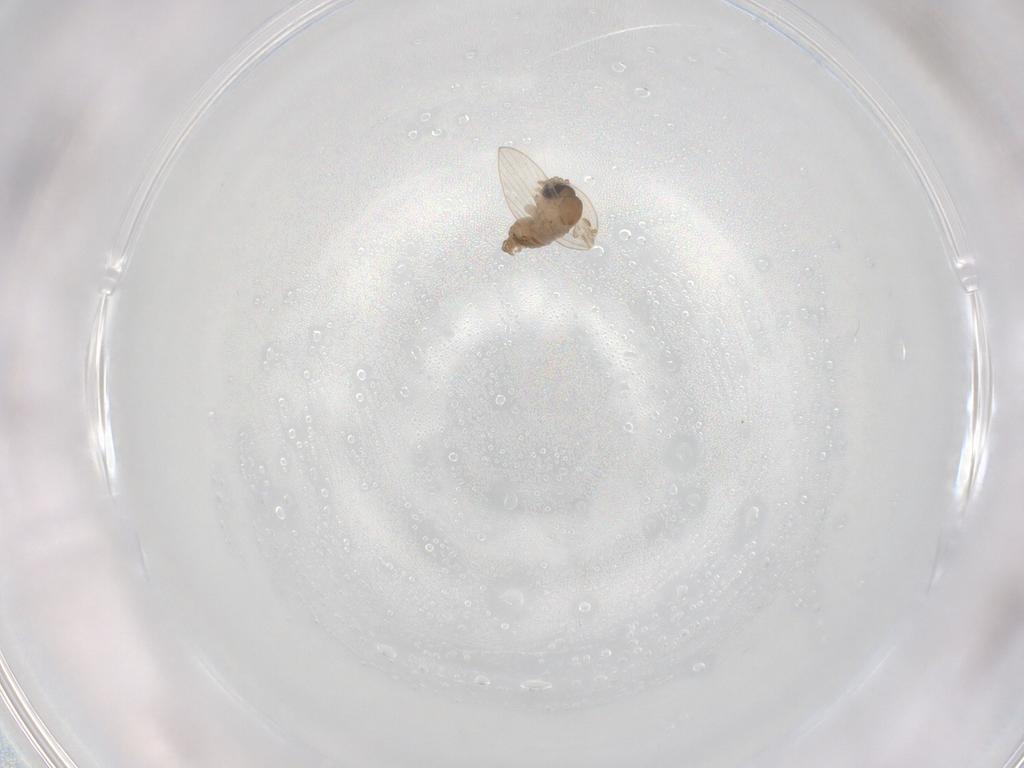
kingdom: Animalia
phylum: Arthropoda
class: Insecta
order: Diptera
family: Psychodidae
